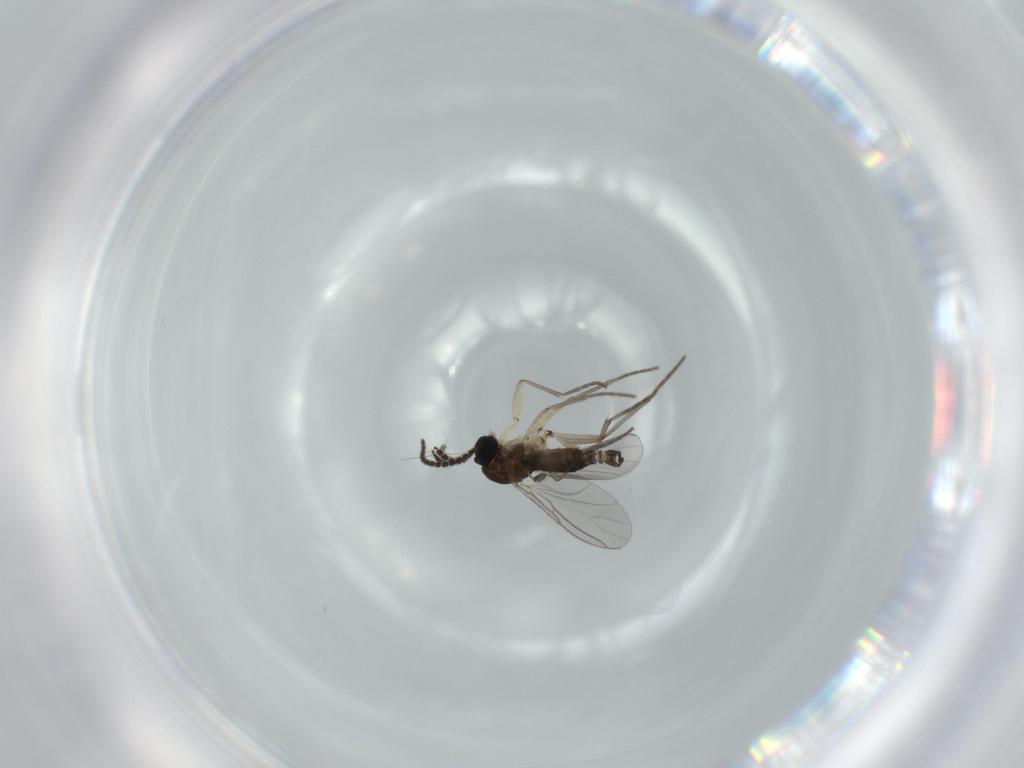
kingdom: Animalia
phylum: Arthropoda
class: Insecta
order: Diptera
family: Sciaridae
